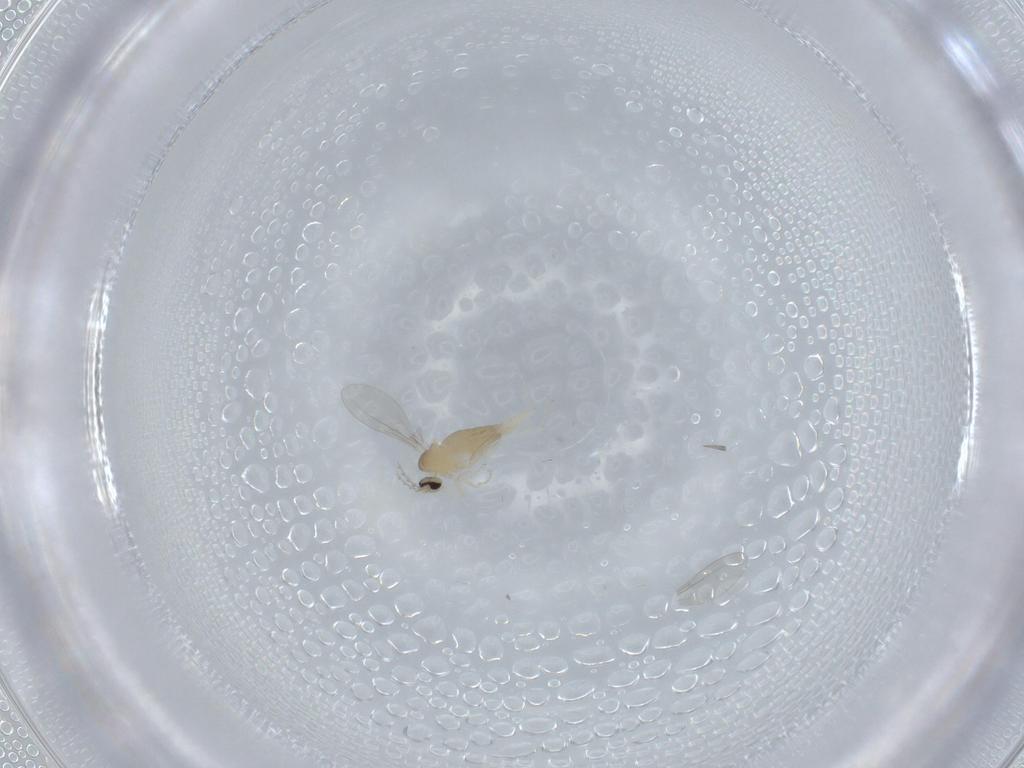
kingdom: Animalia
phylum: Arthropoda
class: Insecta
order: Diptera
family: Cecidomyiidae
